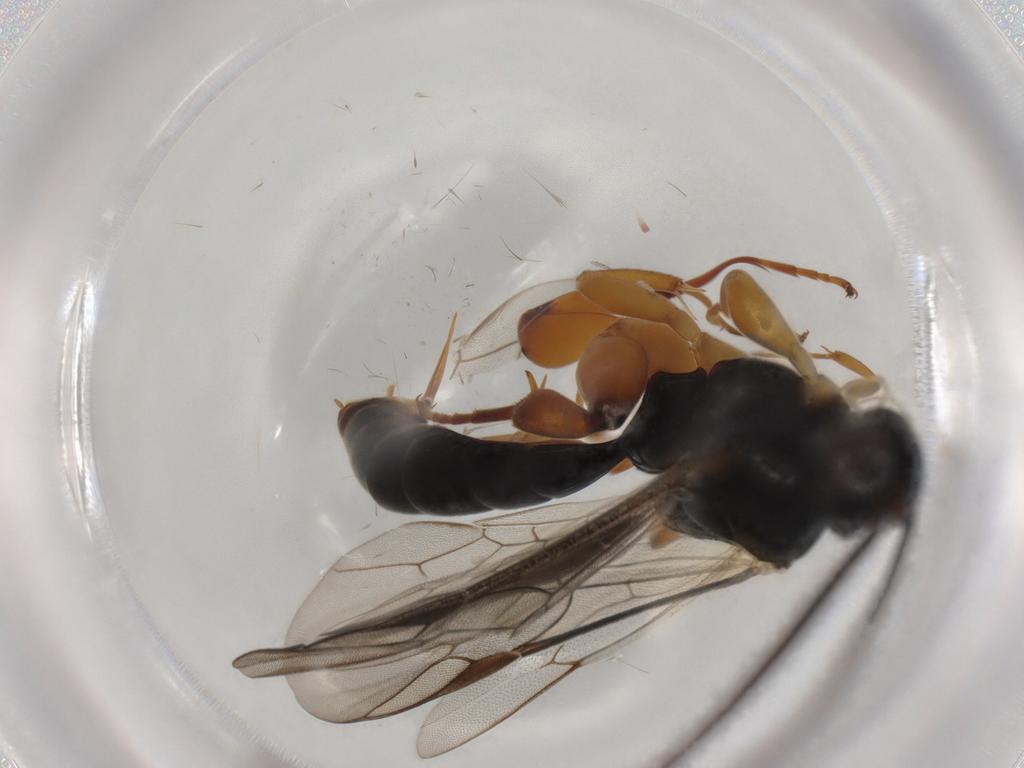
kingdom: Animalia
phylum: Arthropoda
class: Insecta
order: Hymenoptera
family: Ichneumonidae
